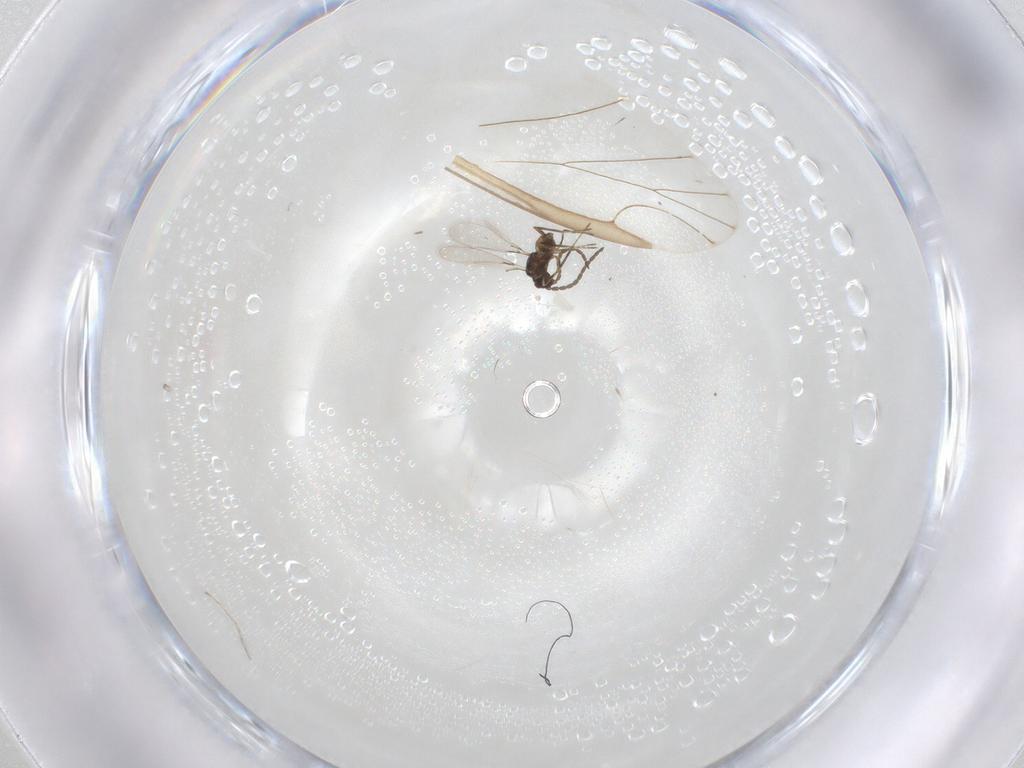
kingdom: Animalia
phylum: Arthropoda
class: Insecta
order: Hymenoptera
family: Mymaridae
